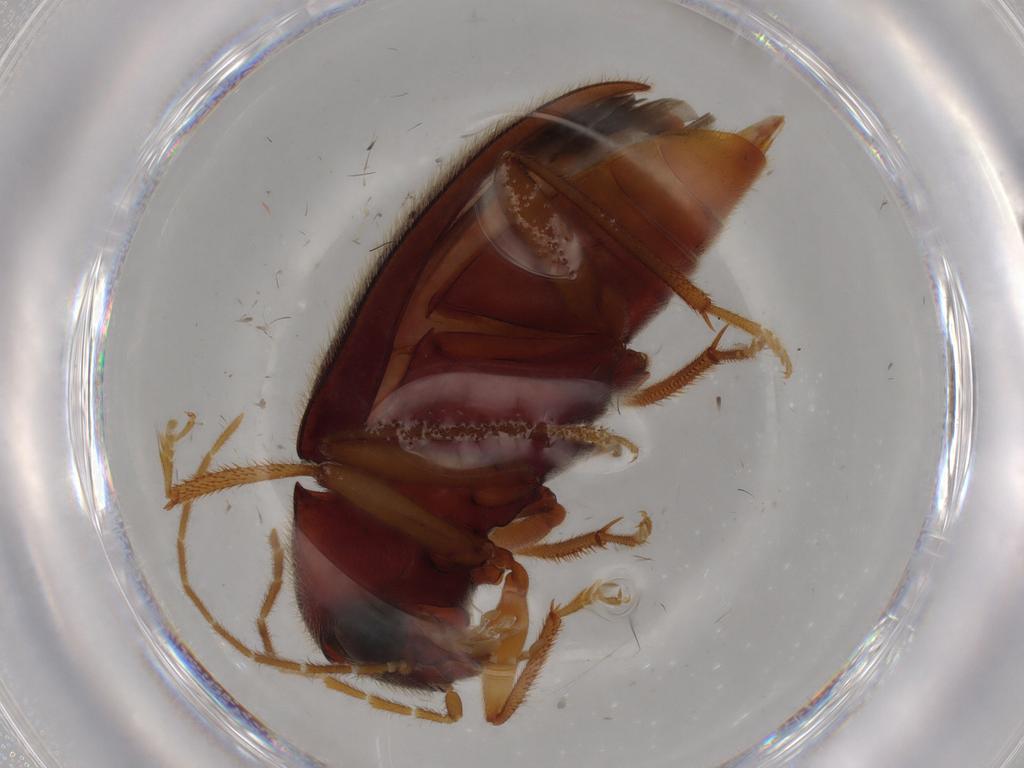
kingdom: Animalia
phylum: Arthropoda
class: Insecta
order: Coleoptera
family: Ptilodactylidae
